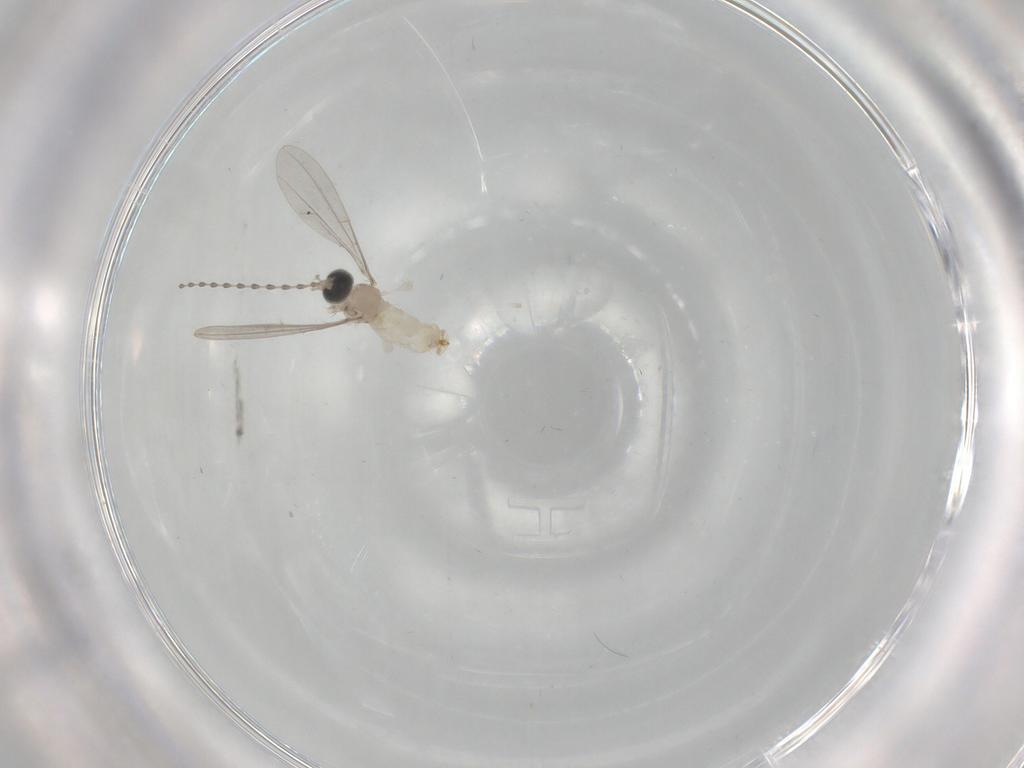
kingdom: Animalia
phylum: Arthropoda
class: Insecta
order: Diptera
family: Cecidomyiidae
